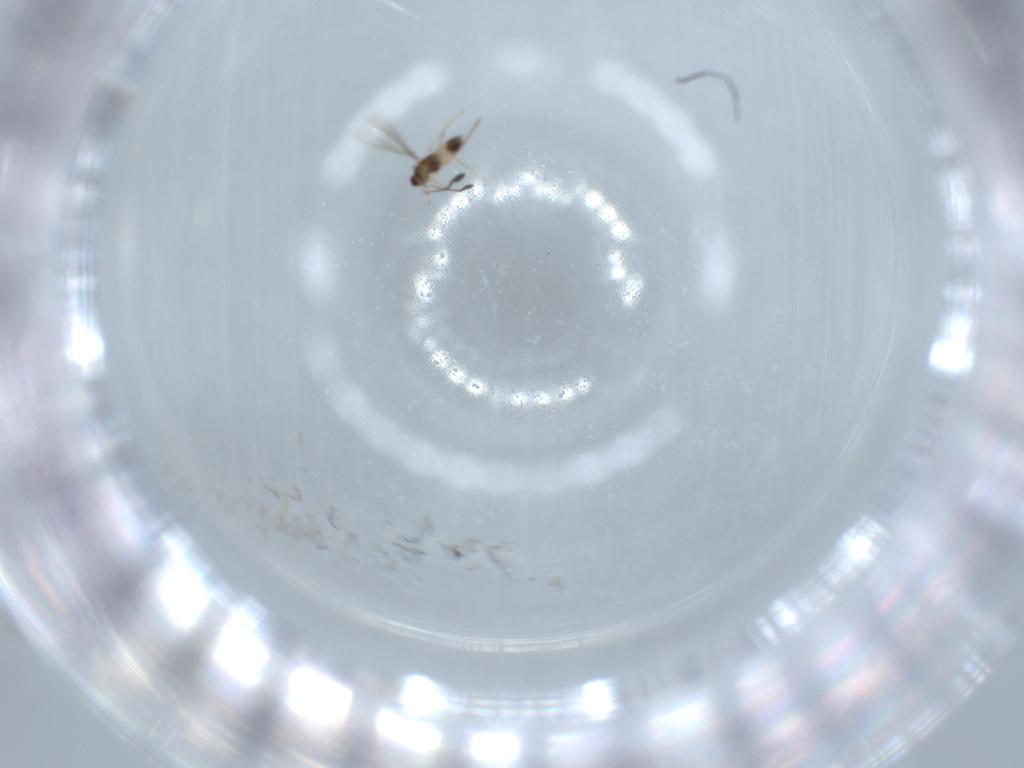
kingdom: Animalia
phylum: Arthropoda
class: Insecta
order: Hymenoptera
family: Mymaridae
